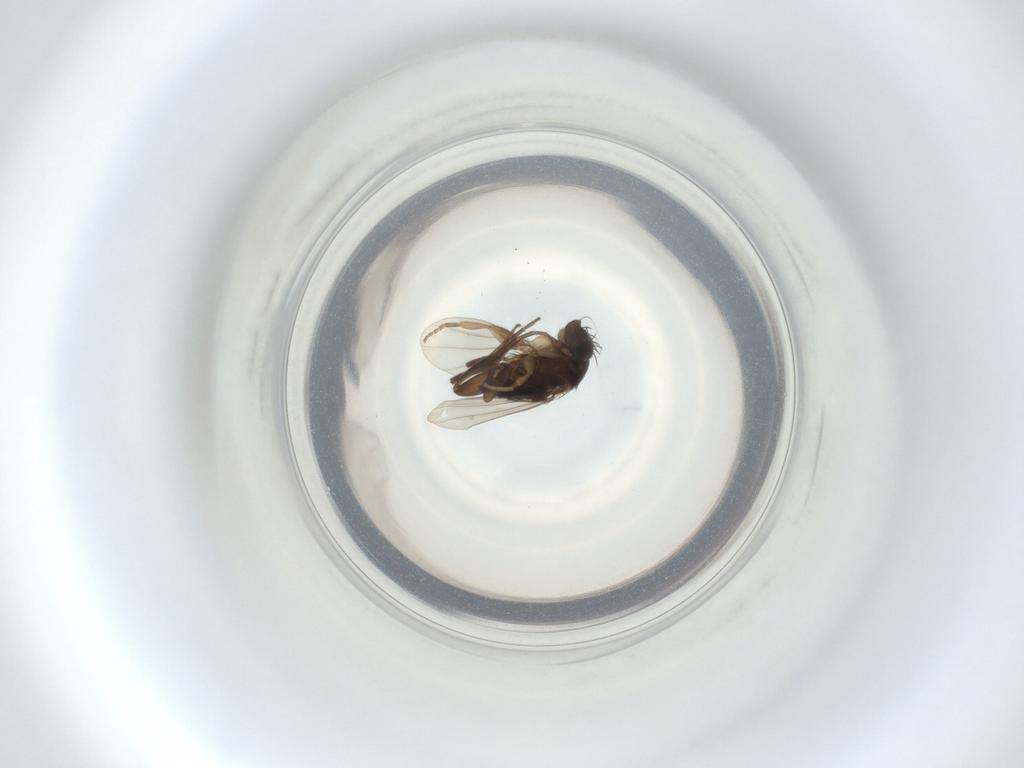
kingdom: Animalia
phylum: Arthropoda
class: Insecta
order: Diptera
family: Phoridae
